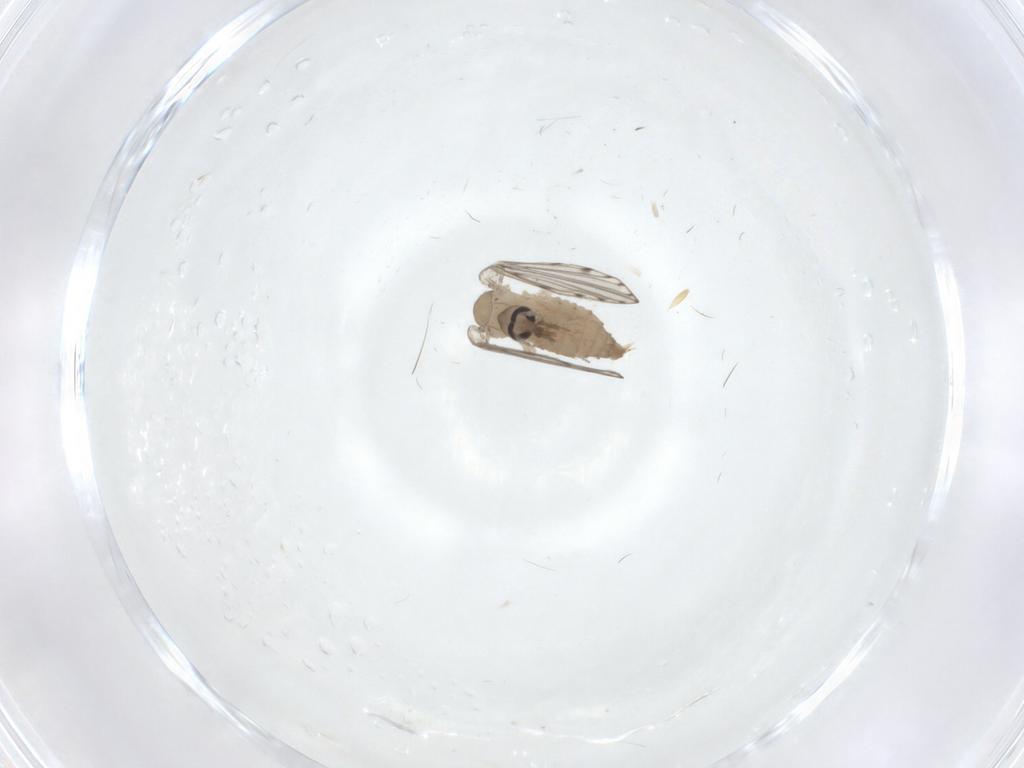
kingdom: Animalia
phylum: Arthropoda
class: Insecta
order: Diptera
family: Psychodidae
